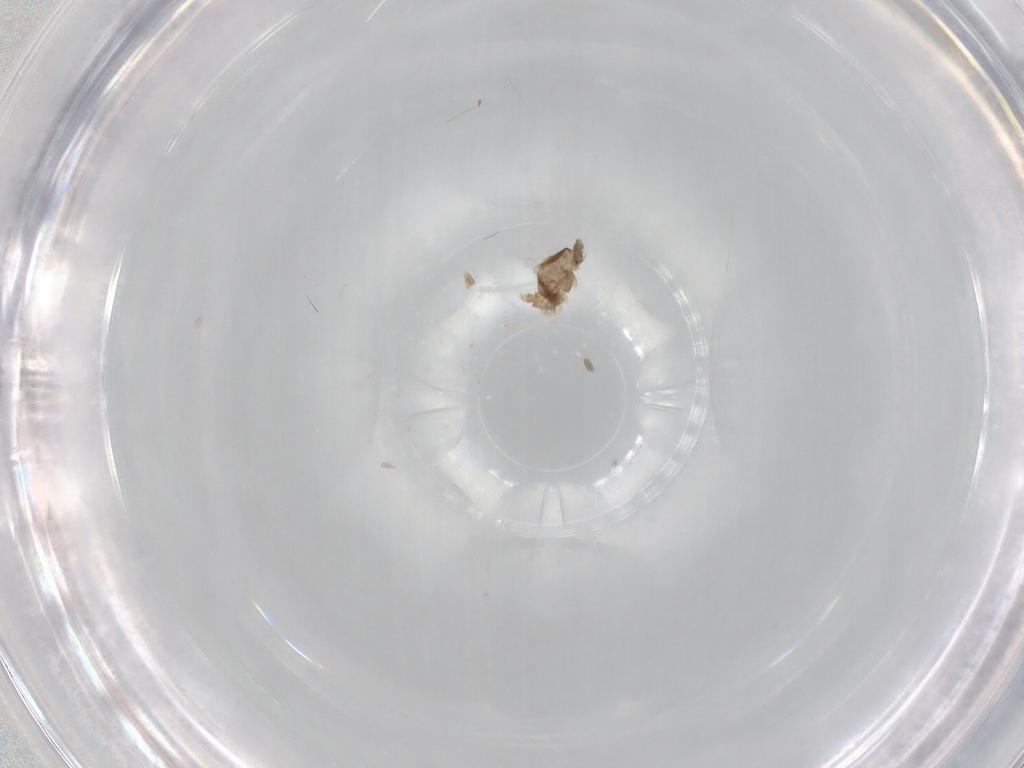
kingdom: Animalia
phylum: Arthropoda
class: Insecta
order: Diptera
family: Cecidomyiidae
